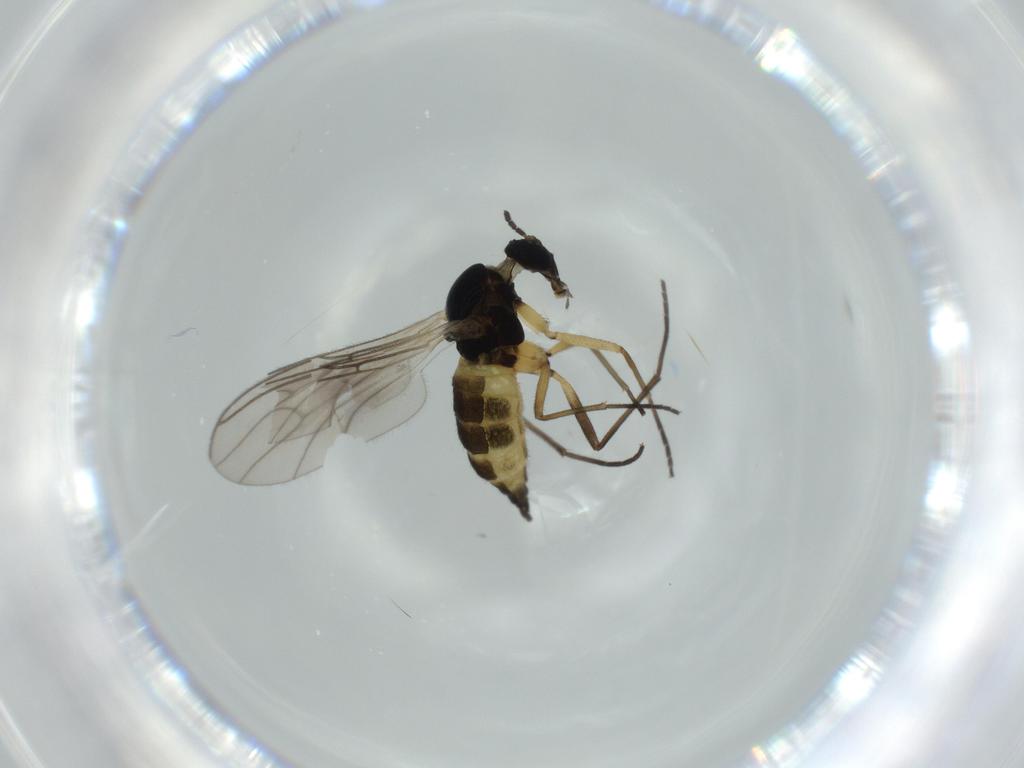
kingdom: Animalia
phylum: Arthropoda
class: Insecta
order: Diptera
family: Sciaridae
